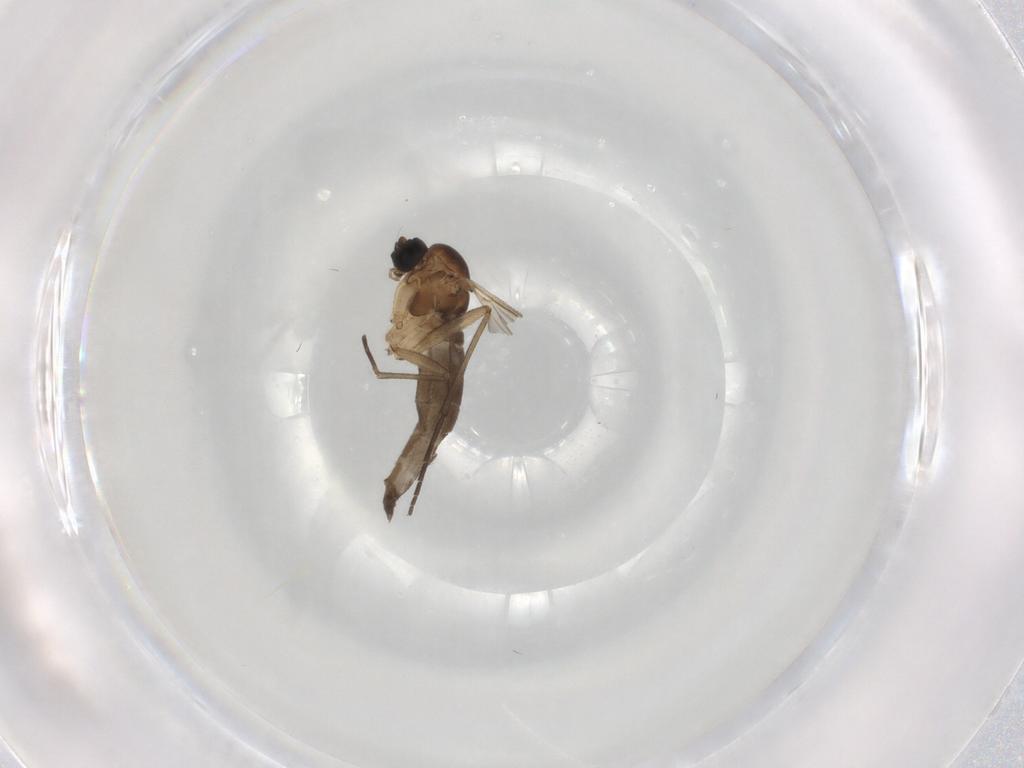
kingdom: Animalia
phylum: Arthropoda
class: Insecta
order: Diptera
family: Sciaridae
